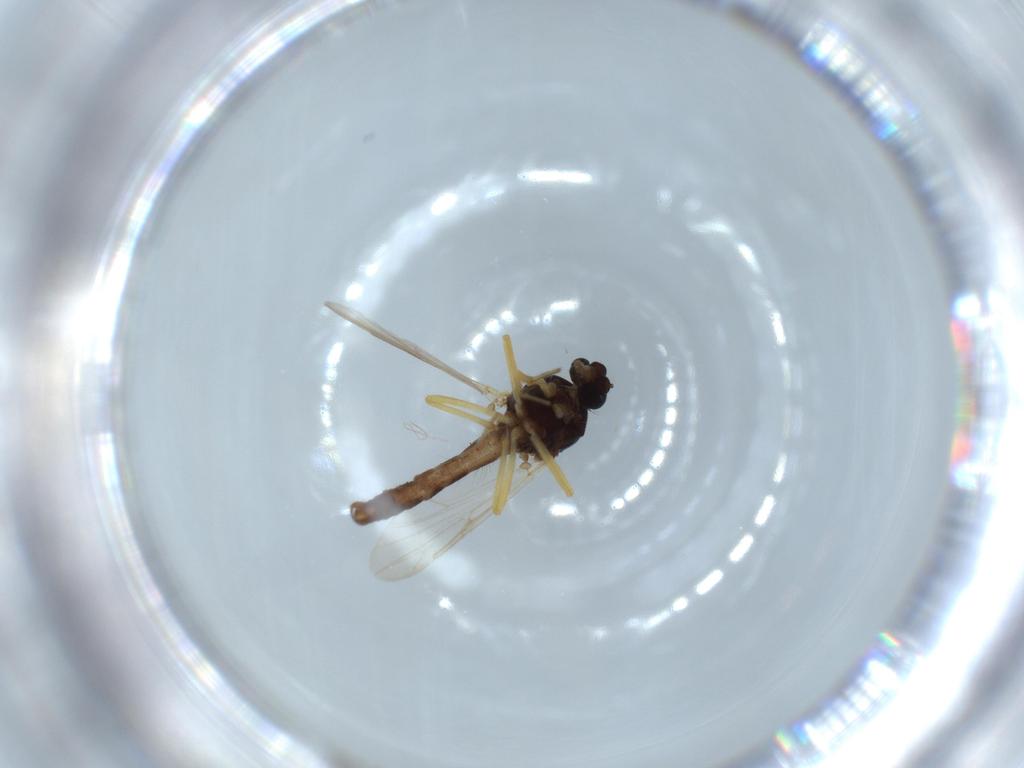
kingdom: Animalia
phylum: Arthropoda
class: Insecta
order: Diptera
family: Ceratopogonidae
